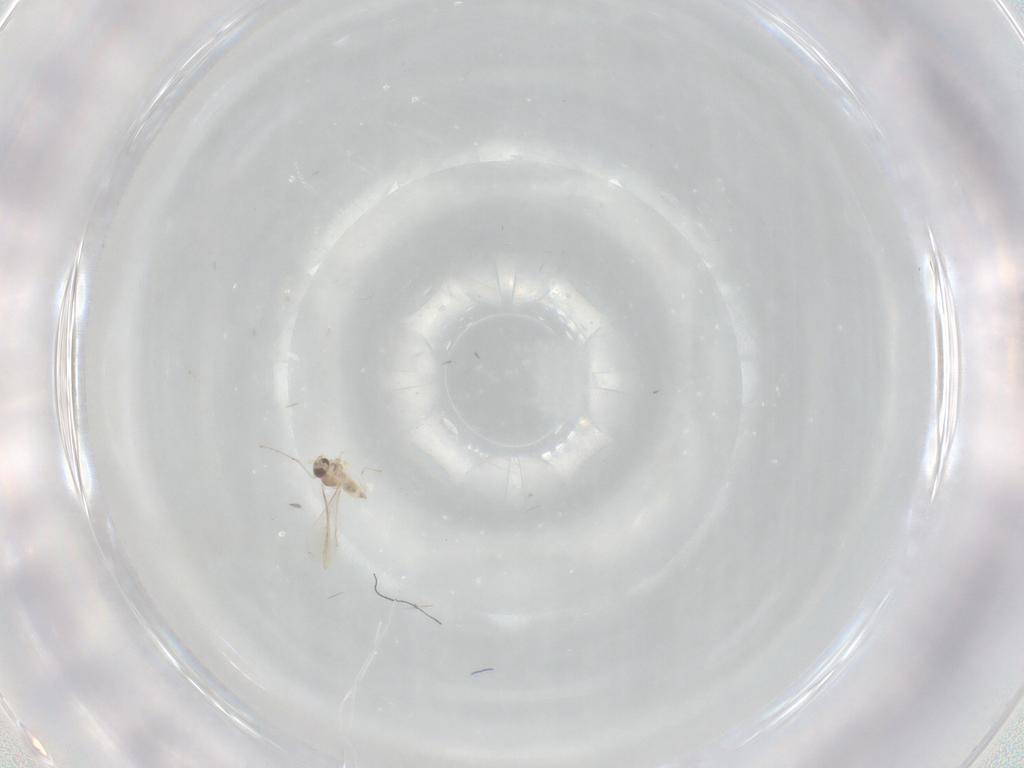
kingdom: Animalia
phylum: Arthropoda
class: Insecta
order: Diptera
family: Cecidomyiidae
